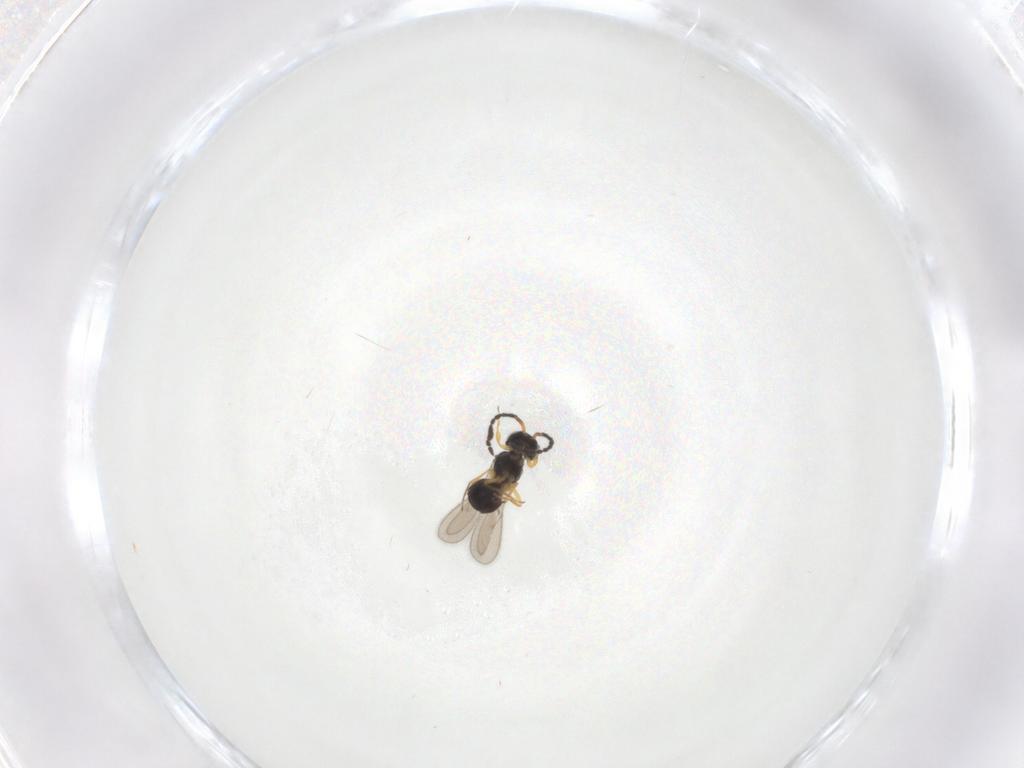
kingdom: Animalia
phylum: Arthropoda
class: Insecta
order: Hymenoptera
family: Scelionidae
